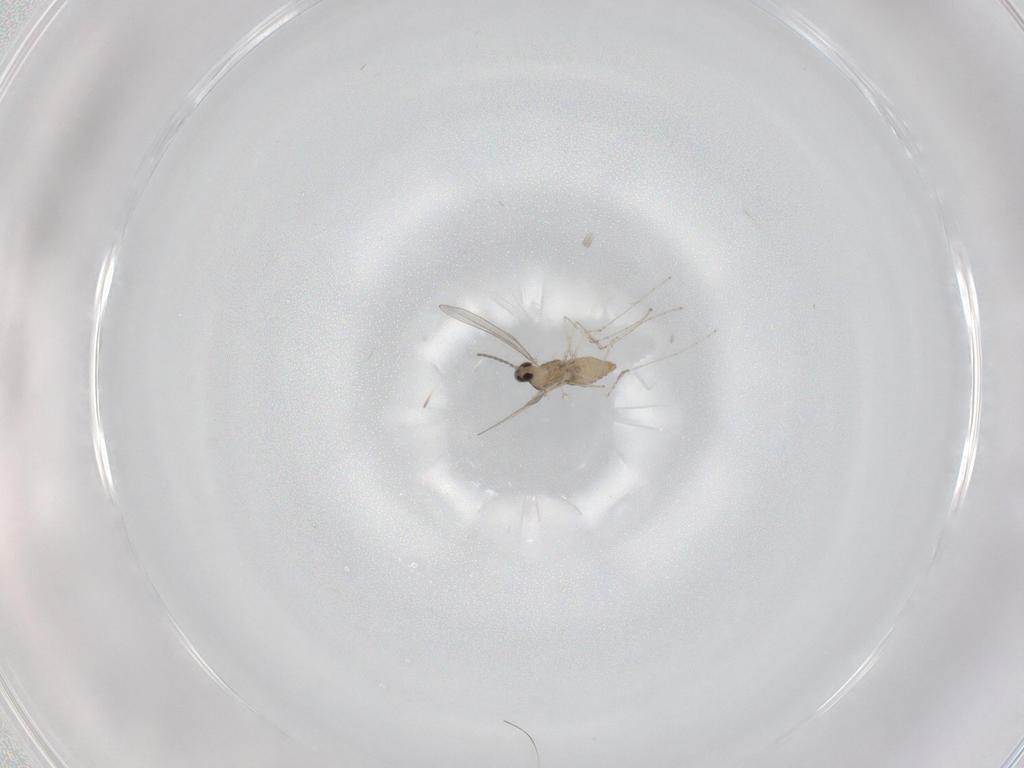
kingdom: Animalia
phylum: Arthropoda
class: Insecta
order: Diptera
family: Cecidomyiidae
